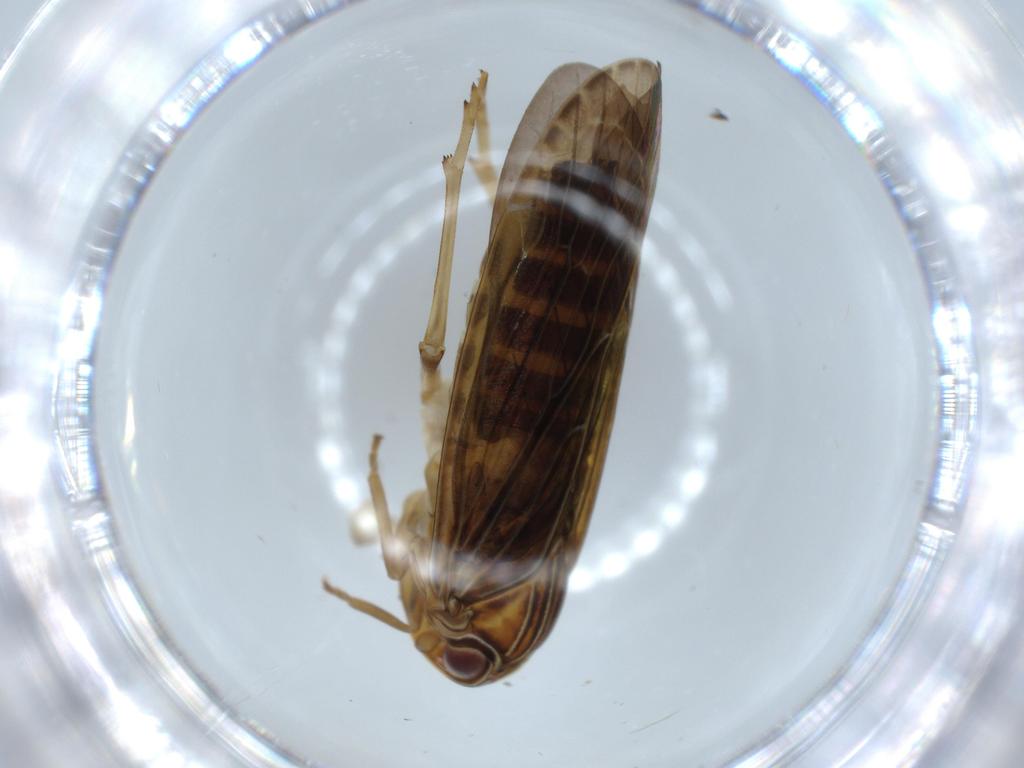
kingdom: Animalia
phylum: Arthropoda
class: Insecta
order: Hemiptera
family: Achilidae
